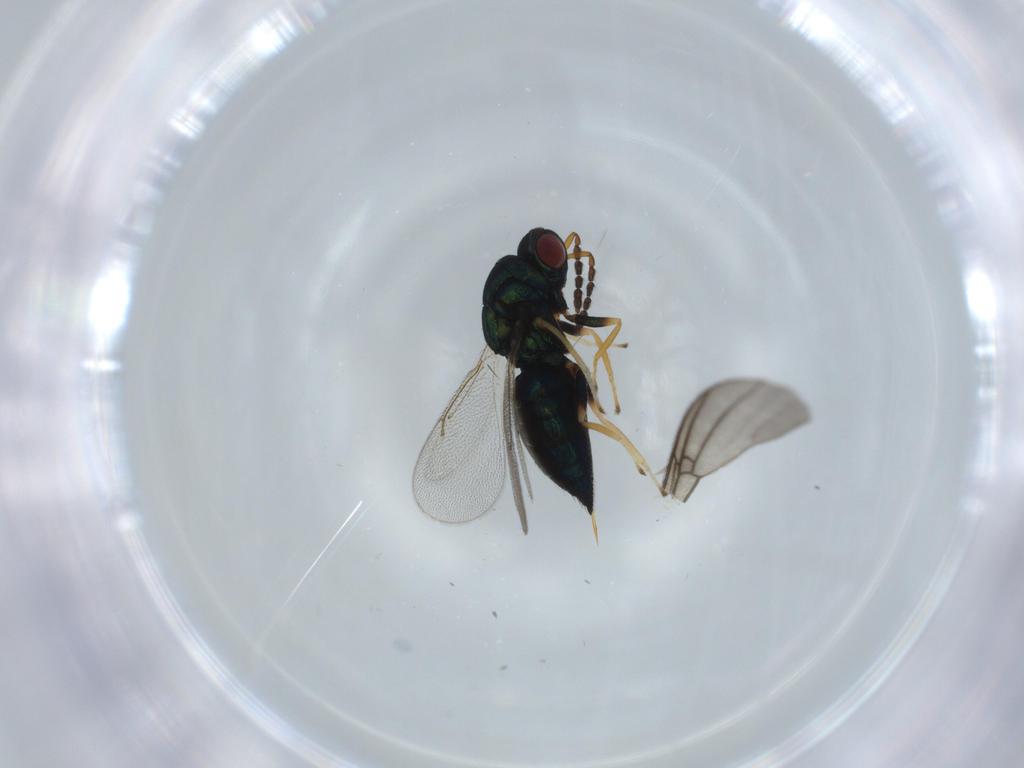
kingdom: Animalia
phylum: Arthropoda
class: Insecta
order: Hymenoptera
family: Eulophidae
